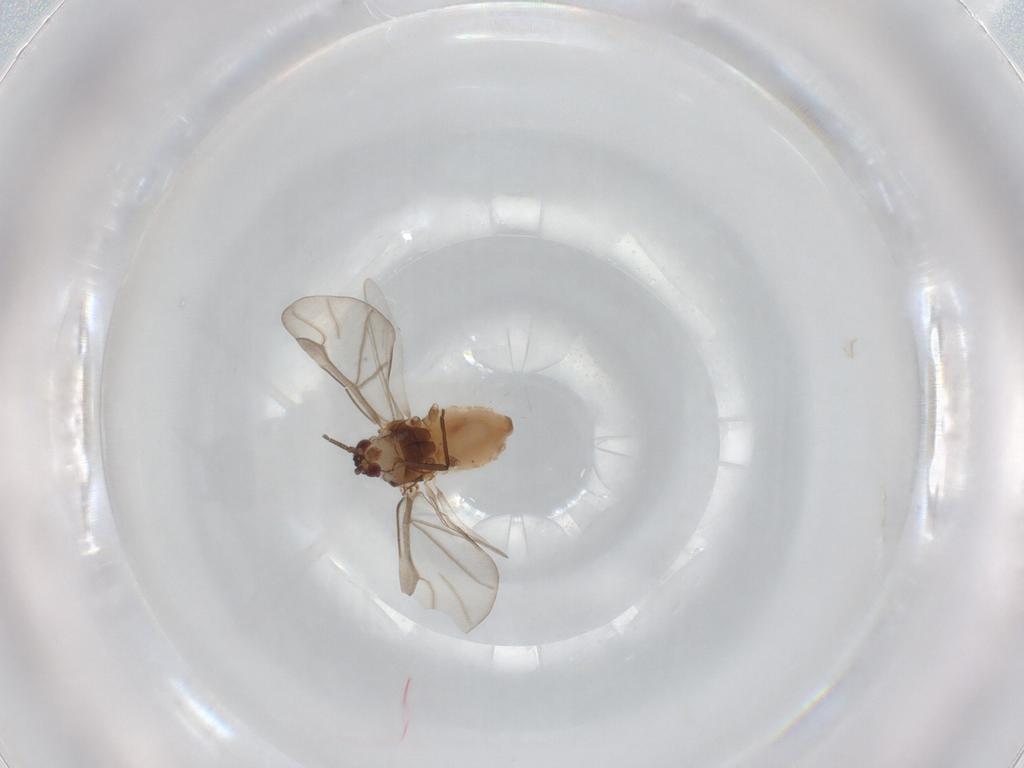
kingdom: Animalia
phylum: Arthropoda
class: Insecta
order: Hemiptera
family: Aphididae
